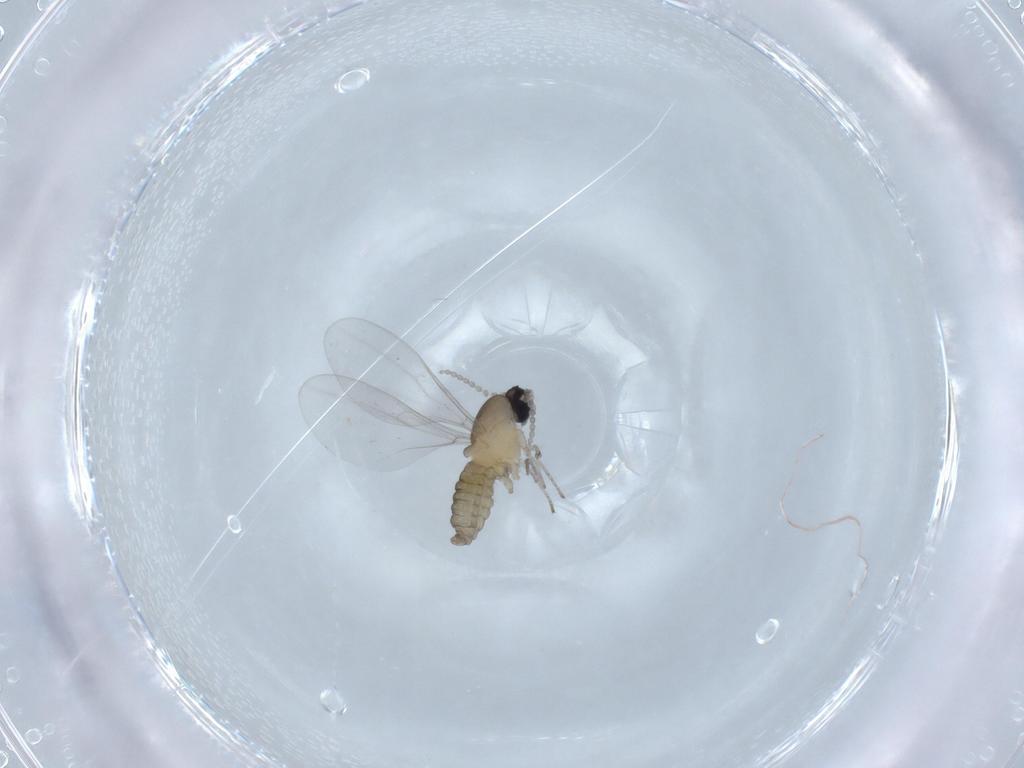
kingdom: Animalia
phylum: Arthropoda
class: Insecta
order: Diptera
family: Cecidomyiidae
